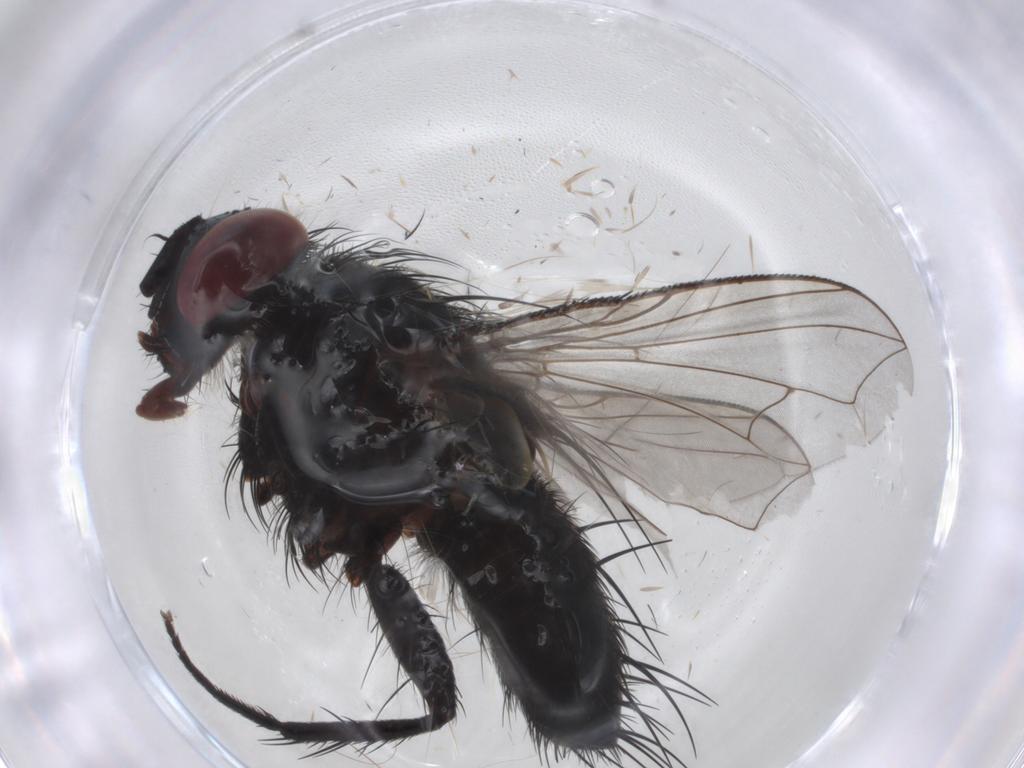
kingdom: Animalia
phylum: Arthropoda
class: Insecta
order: Diptera
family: Tachinidae
